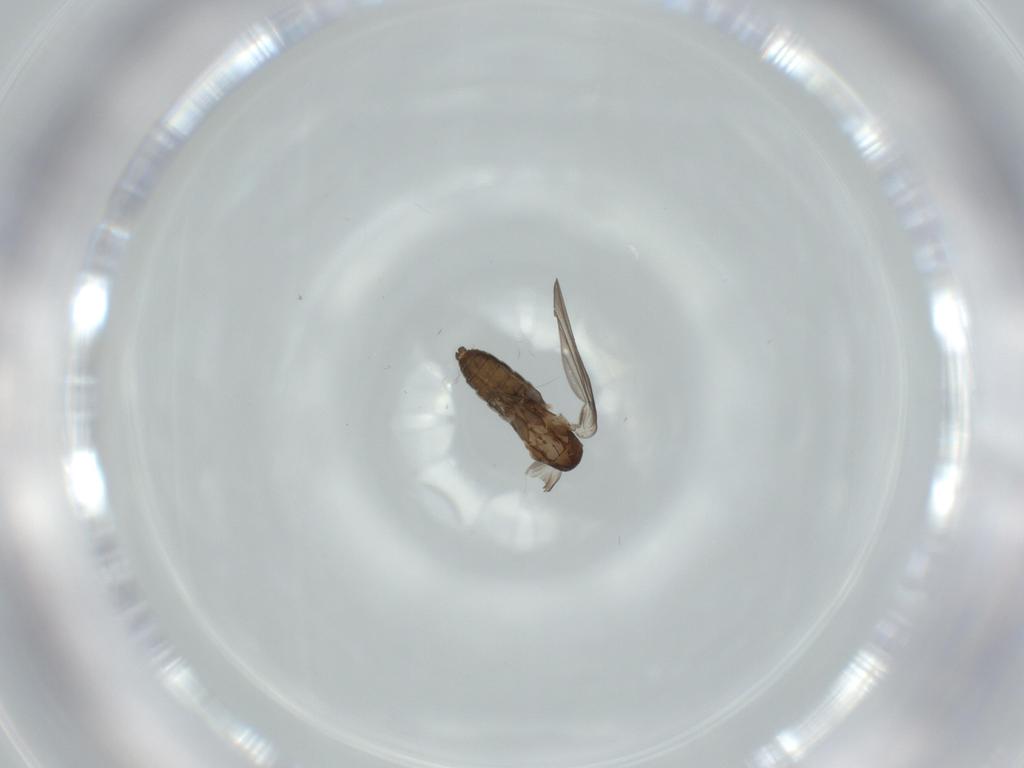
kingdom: Animalia
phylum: Arthropoda
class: Insecta
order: Diptera
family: Psychodidae
